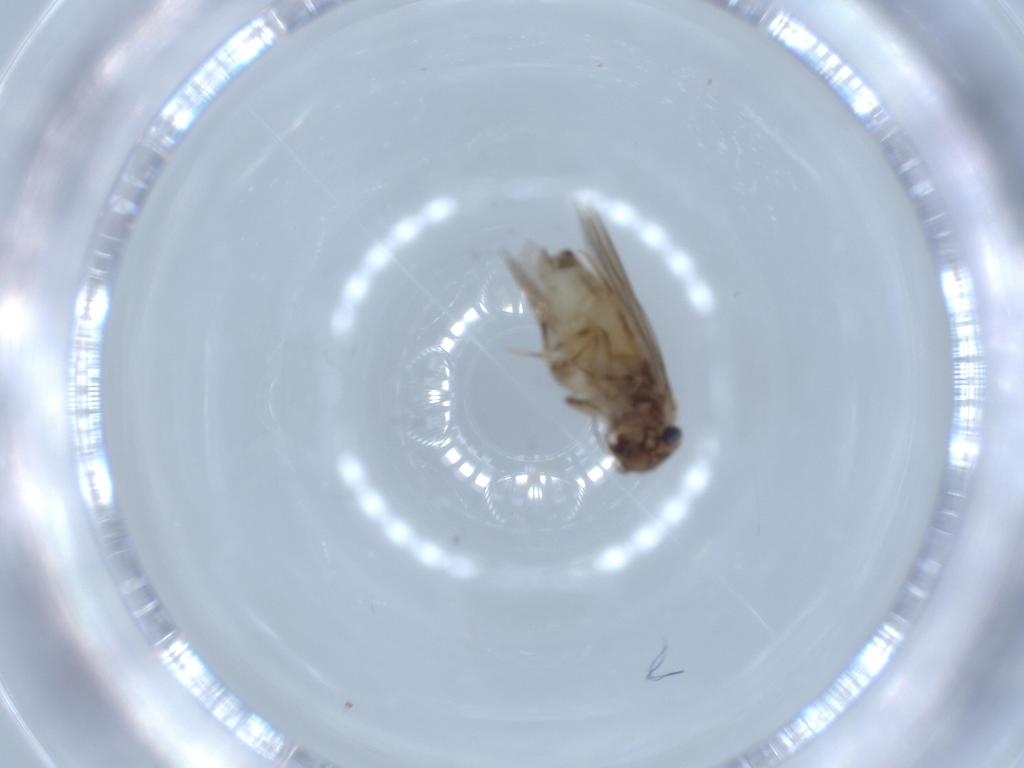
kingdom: Animalia
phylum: Arthropoda
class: Insecta
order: Psocodea
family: Lepidopsocidae
